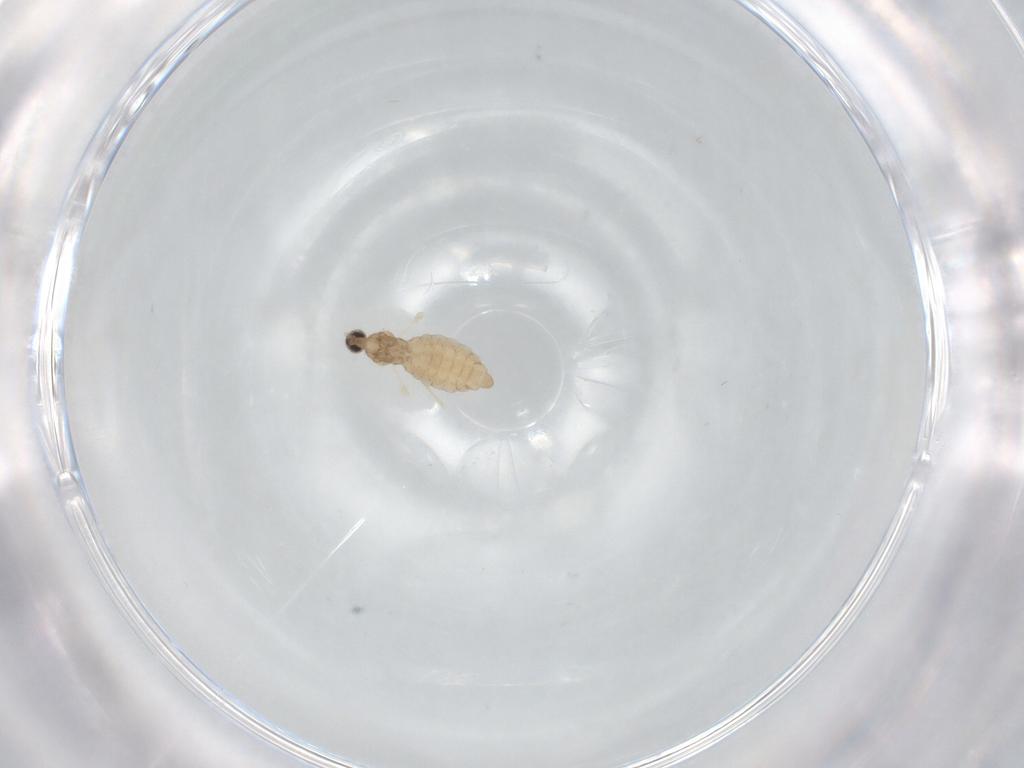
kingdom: Animalia
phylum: Arthropoda
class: Insecta
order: Diptera
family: Cecidomyiidae
